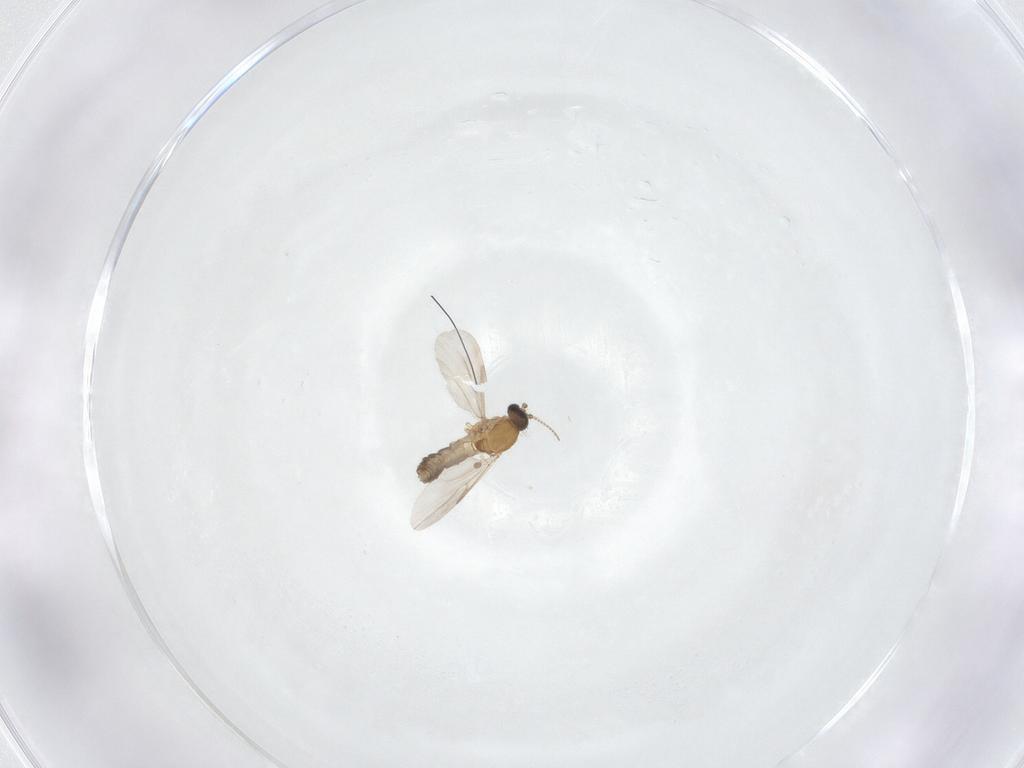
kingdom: Animalia
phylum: Arthropoda
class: Insecta
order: Diptera
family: Ceratopogonidae
